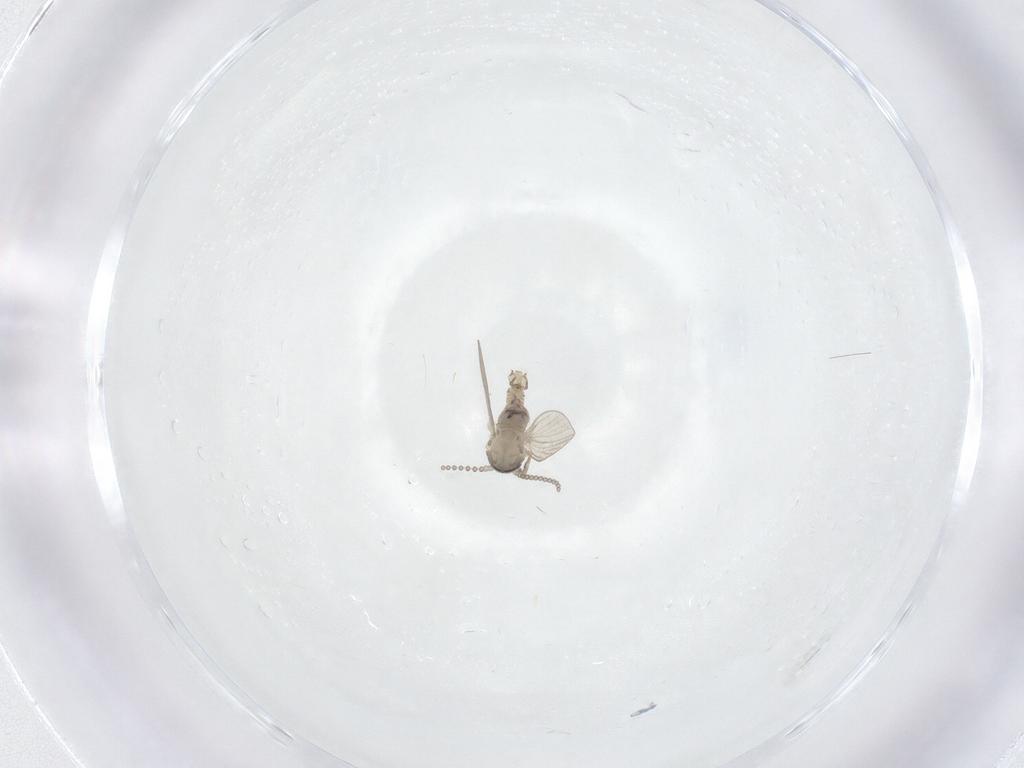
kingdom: Animalia
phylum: Arthropoda
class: Insecta
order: Diptera
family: Psychodidae
